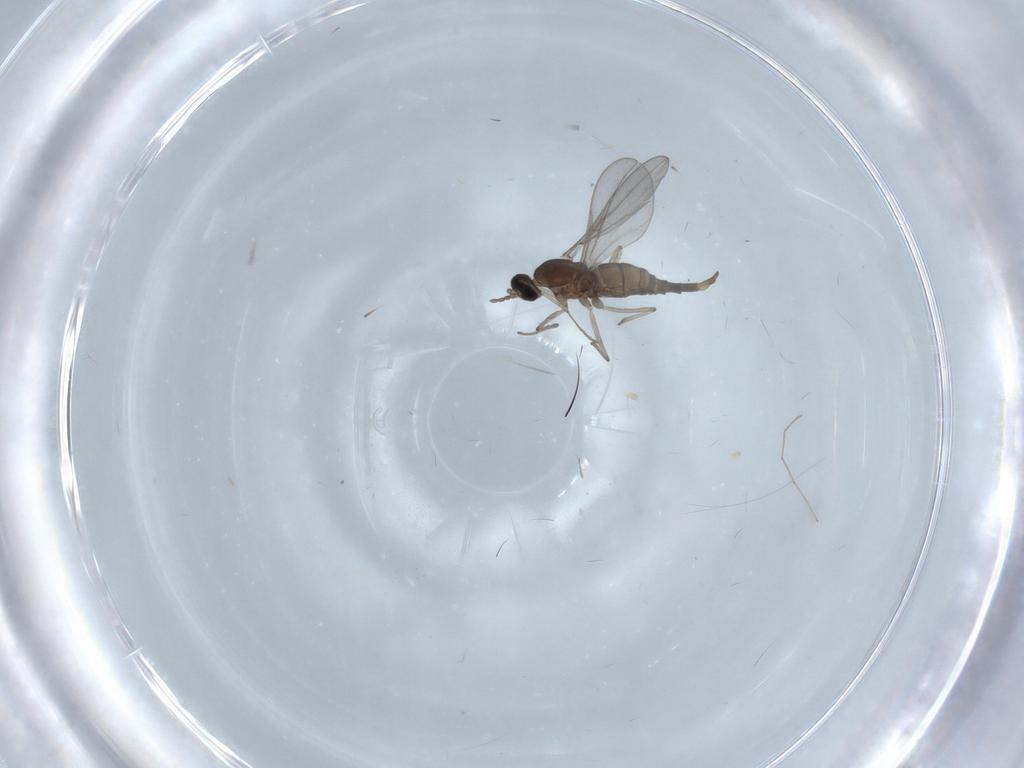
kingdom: Animalia
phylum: Arthropoda
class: Insecta
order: Diptera
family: Chironomidae
